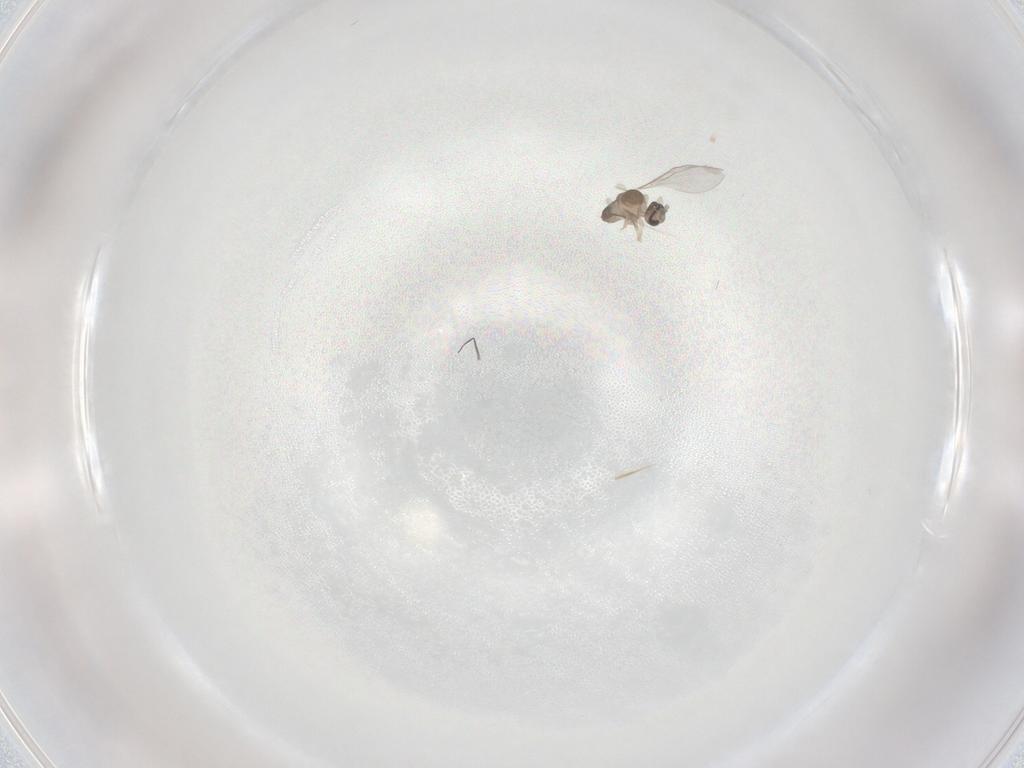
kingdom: Animalia
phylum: Arthropoda
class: Insecta
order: Diptera
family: Cecidomyiidae
